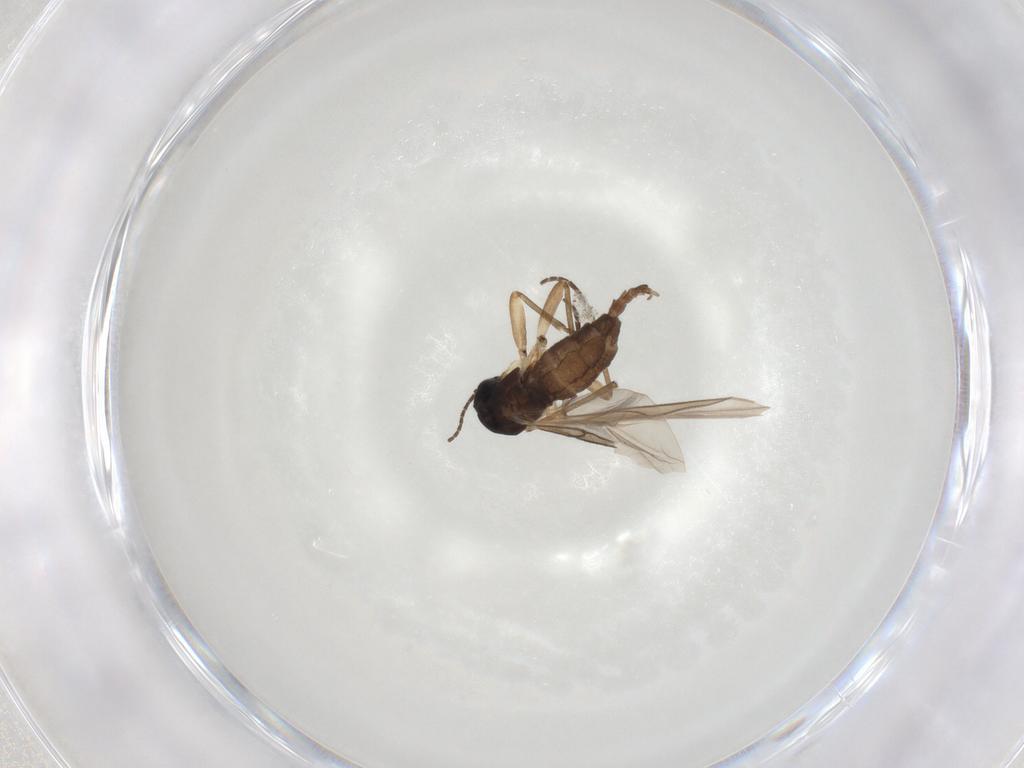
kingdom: Animalia
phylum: Arthropoda
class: Insecta
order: Diptera
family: Sciaridae
